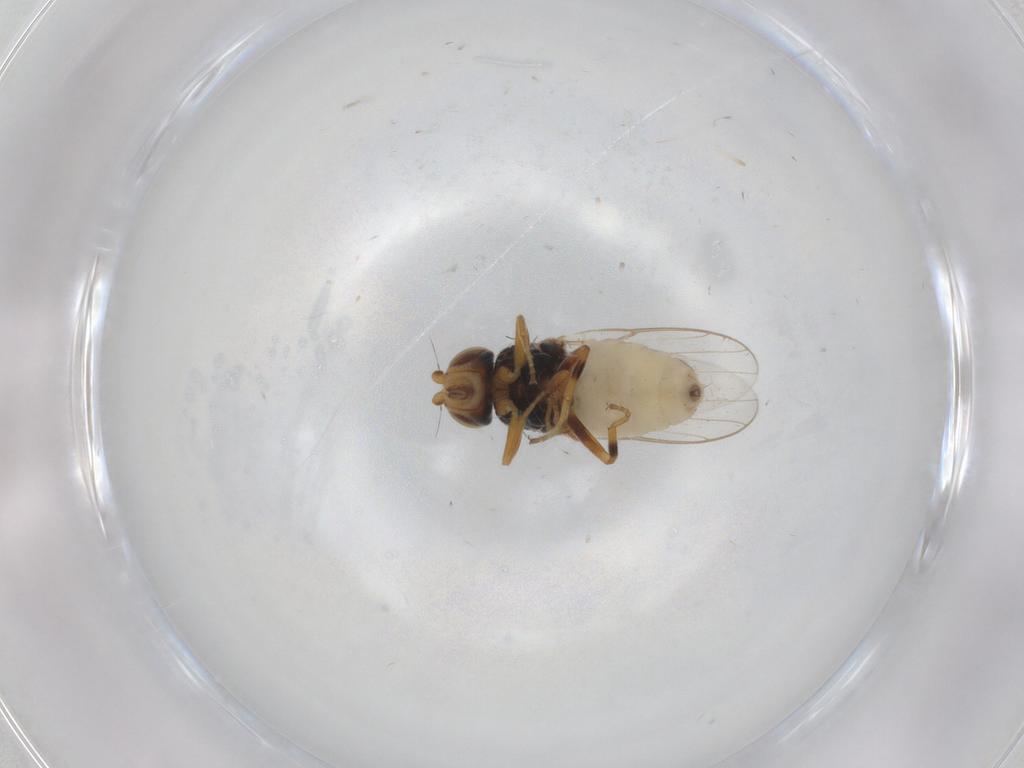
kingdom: Animalia
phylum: Arthropoda
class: Insecta
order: Diptera
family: Chloropidae
